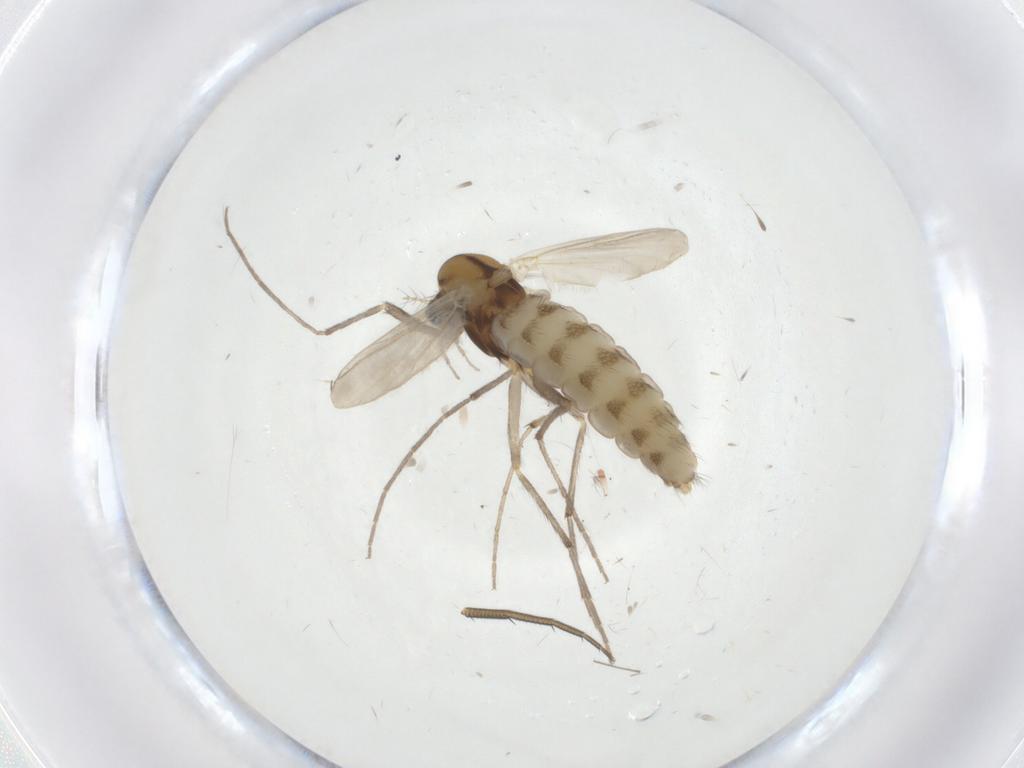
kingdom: Animalia
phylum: Arthropoda
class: Insecta
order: Diptera
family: Chironomidae
